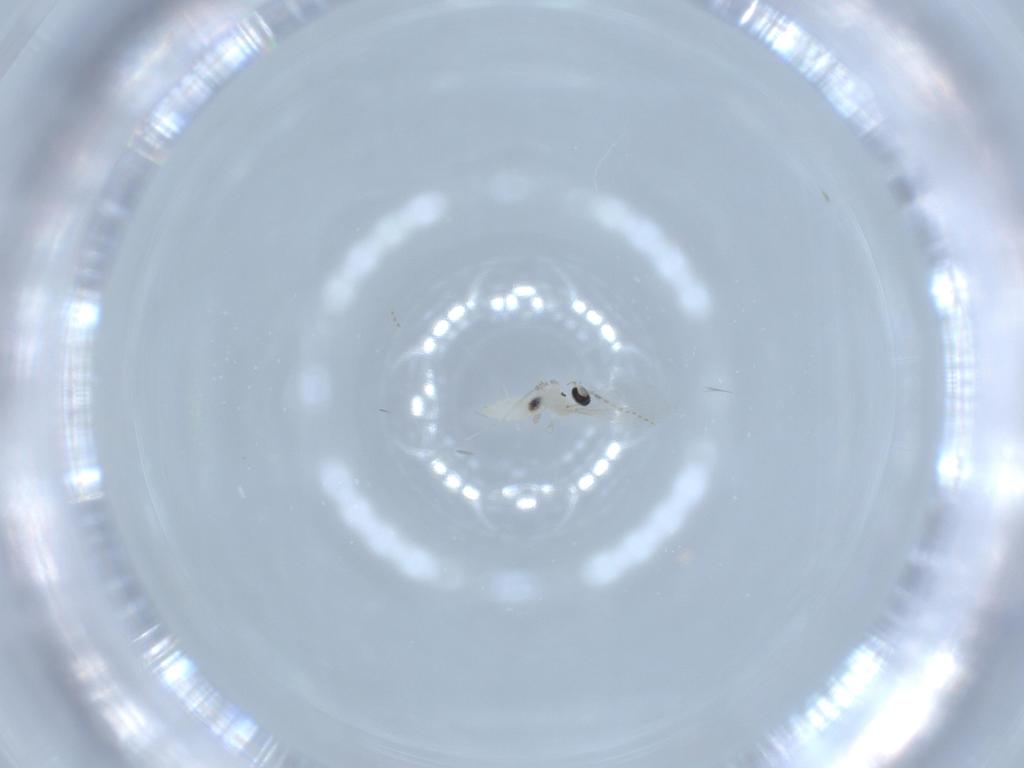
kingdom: Animalia
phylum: Arthropoda
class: Insecta
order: Diptera
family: Cecidomyiidae
